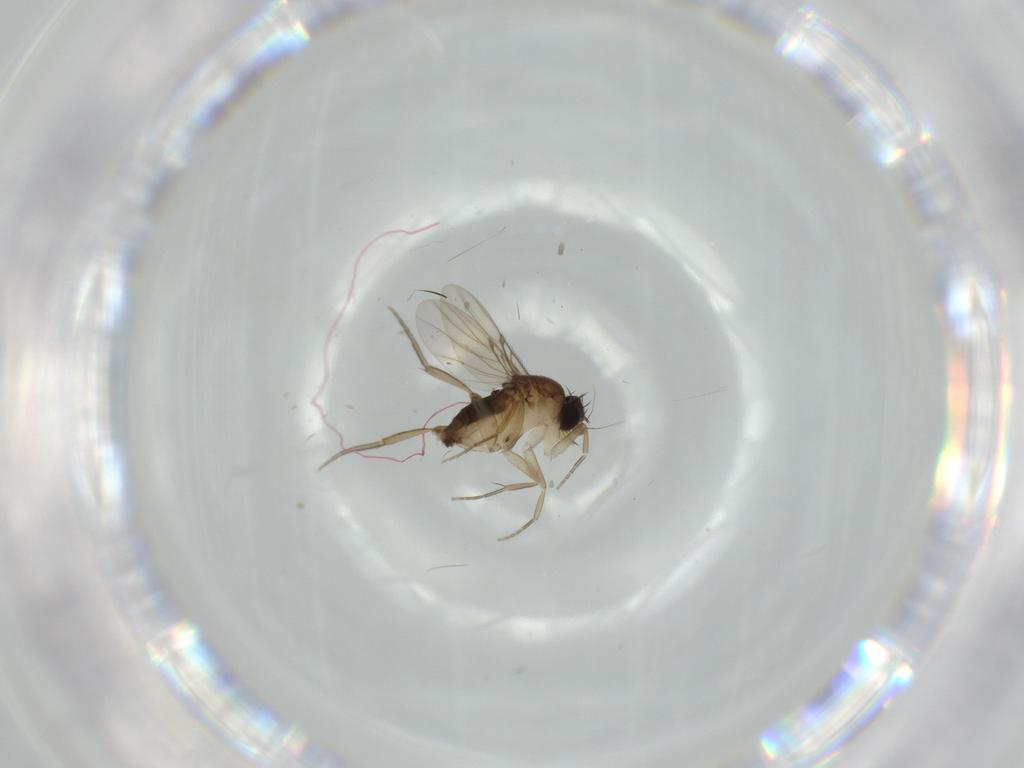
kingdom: Animalia
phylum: Arthropoda
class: Insecta
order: Diptera
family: Phoridae
